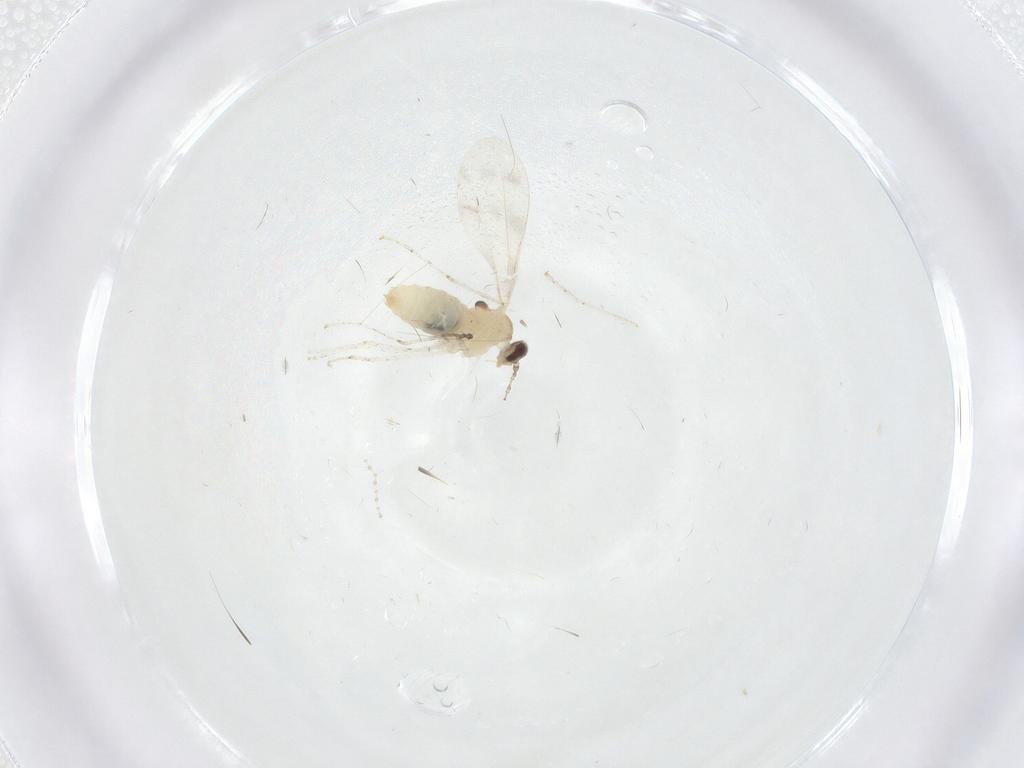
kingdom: Animalia
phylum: Arthropoda
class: Insecta
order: Diptera
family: Cecidomyiidae
